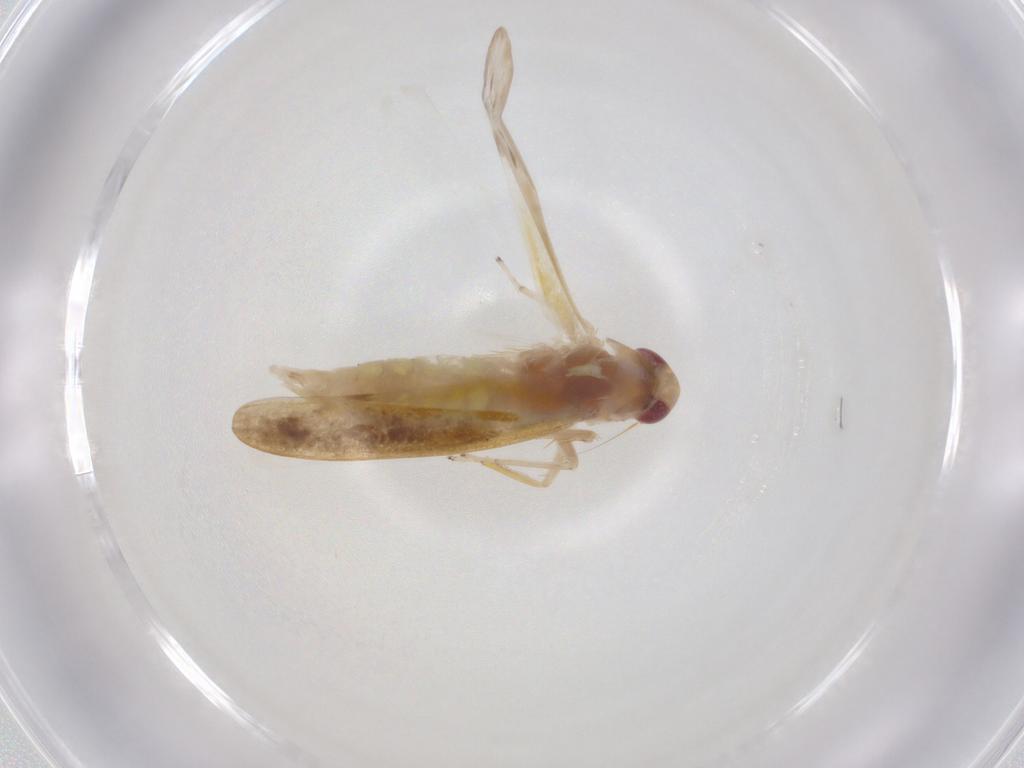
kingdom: Animalia
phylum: Arthropoda
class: Insecta
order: Hemiptera
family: Cicadellidae
